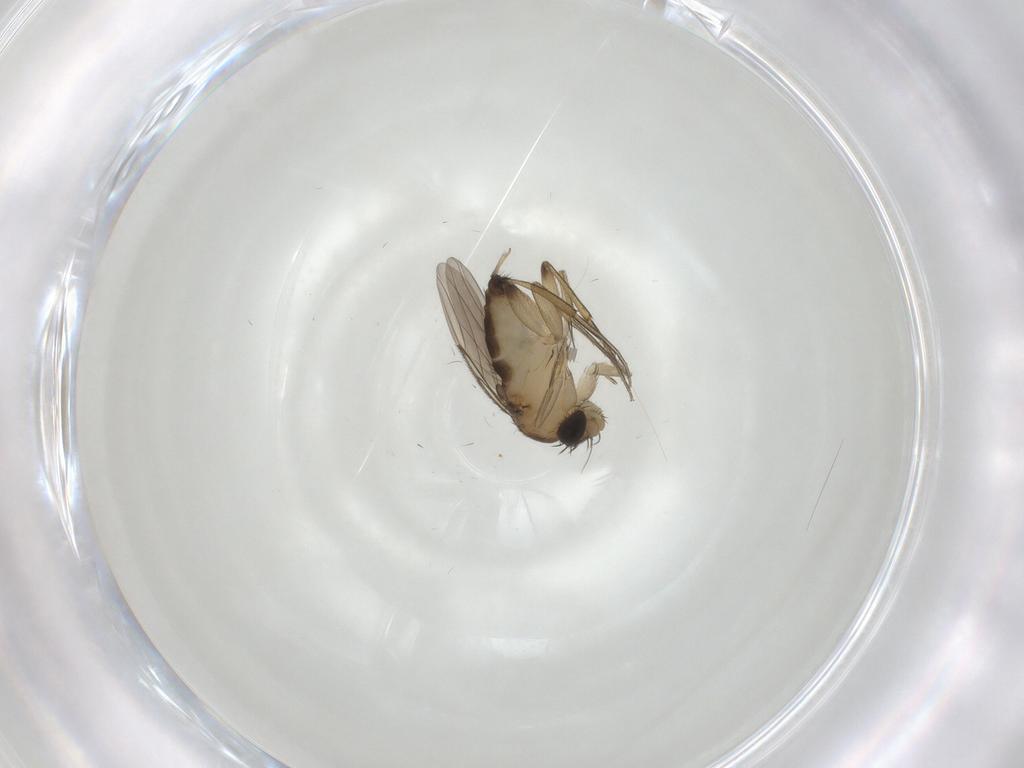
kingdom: Animalia
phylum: Arthropoda
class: Insecta
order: Diptera
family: Phoridae
